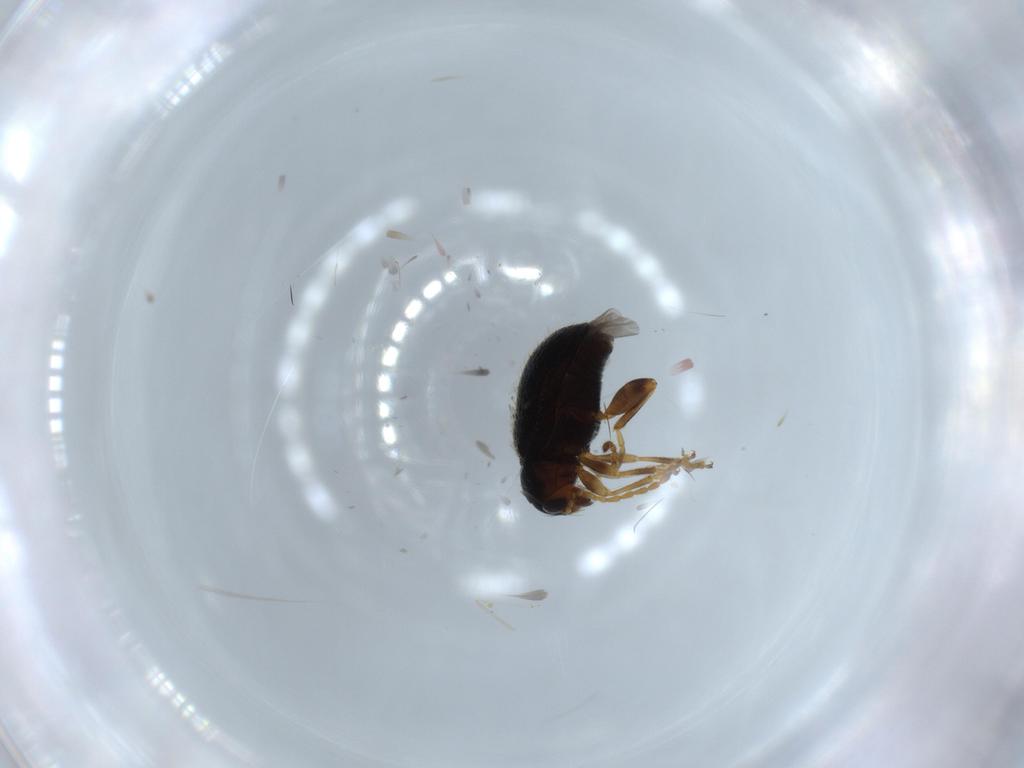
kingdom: Animalia
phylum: Arthropoda
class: Insecta
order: Coleoptera
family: Chrysomelidae
